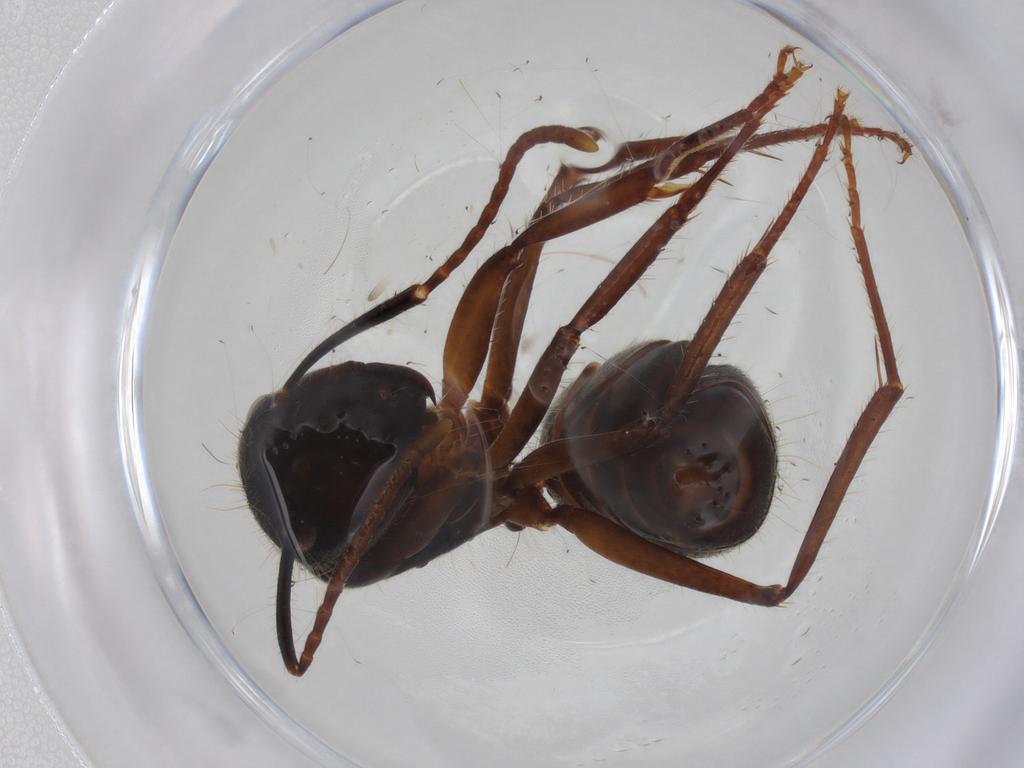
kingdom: Animalia
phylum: Arthropoda
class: Insecta
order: Hymenoptera
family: Formicidae
